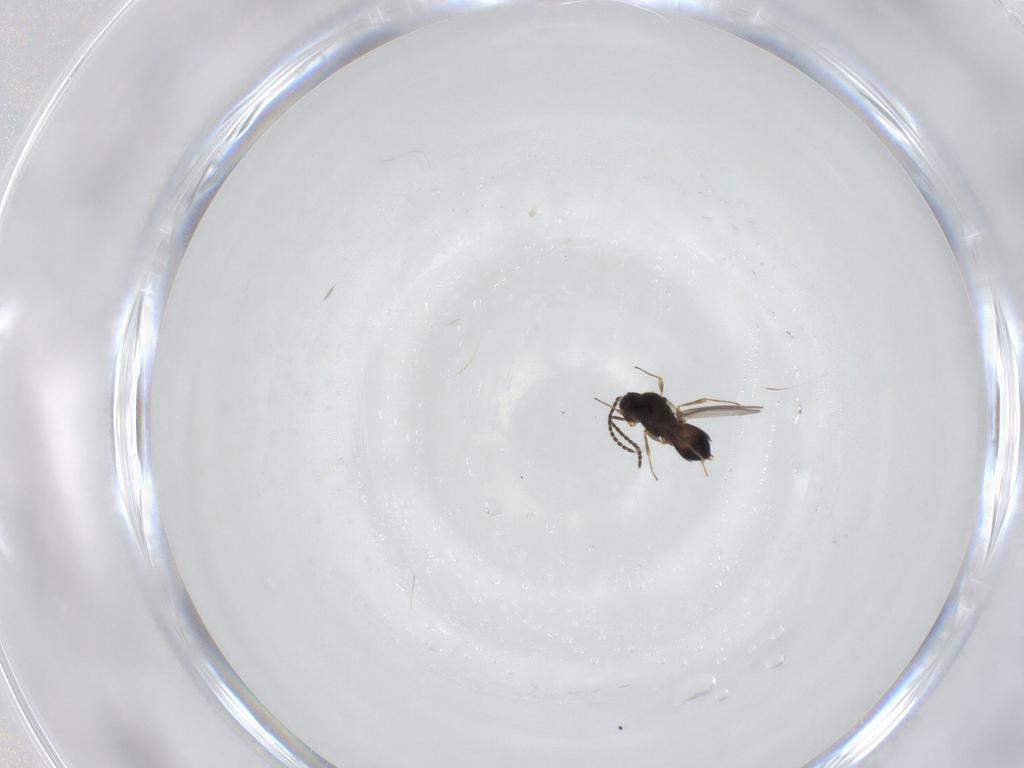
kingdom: Animalia
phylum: Arthropoda
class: Insecta
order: Hymenoptera
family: Scelionidae
